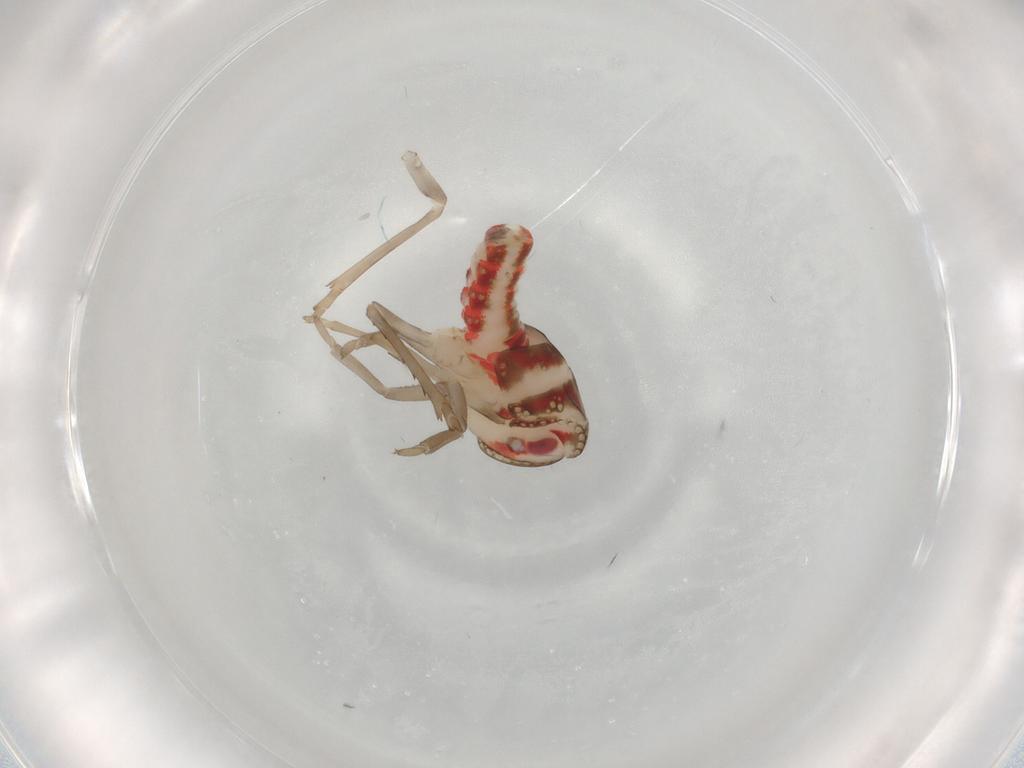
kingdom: Animalia
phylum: Arthropoda
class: Insecta
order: Hemiptera
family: Nogodinidae
